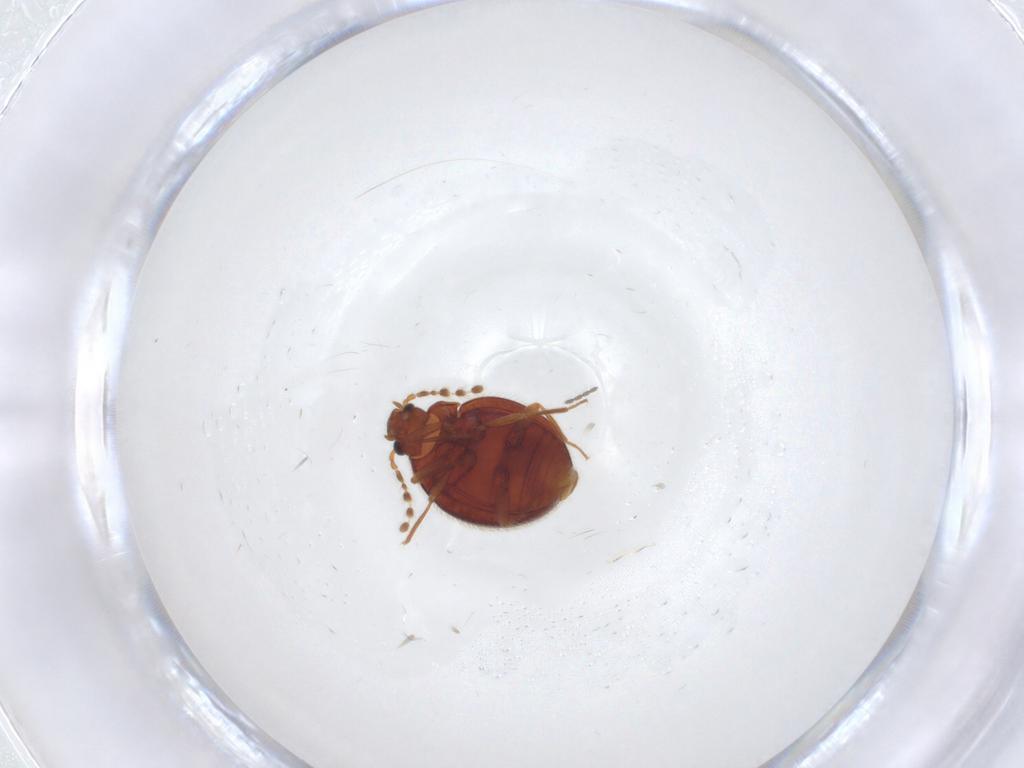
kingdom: Animalia
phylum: Arthropoda
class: Insecta
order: Coleoptera
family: Anamorphidae
